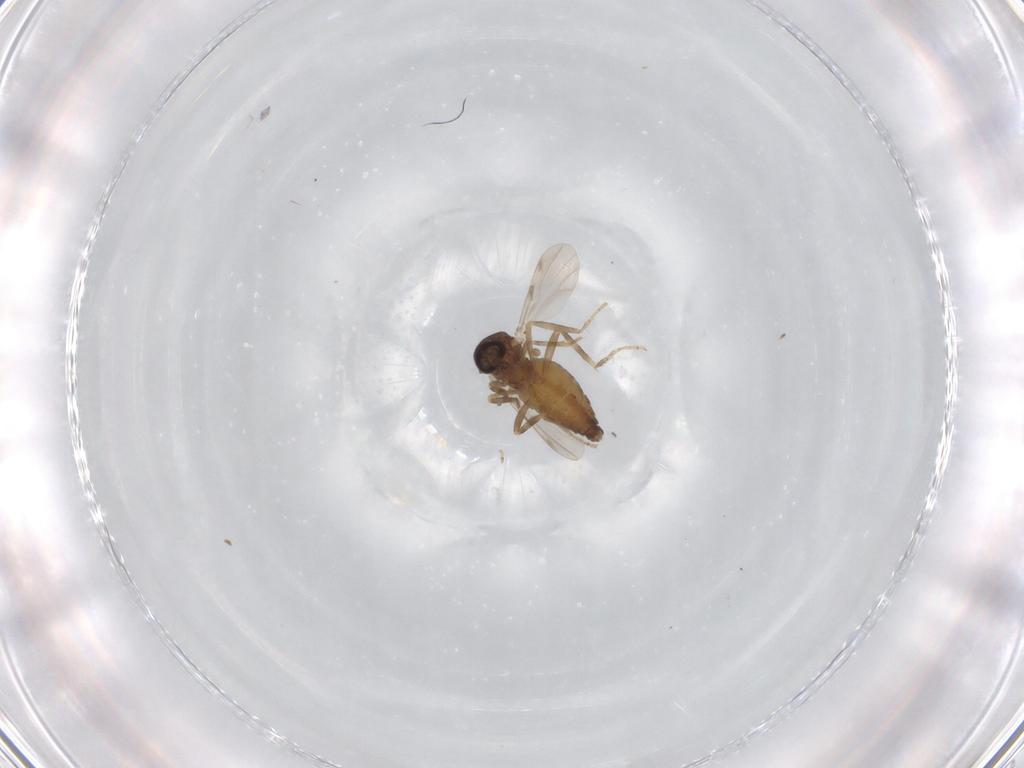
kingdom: Animalia
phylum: Arthropoda
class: Insecta
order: Diptera
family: Ceratopogonidae
